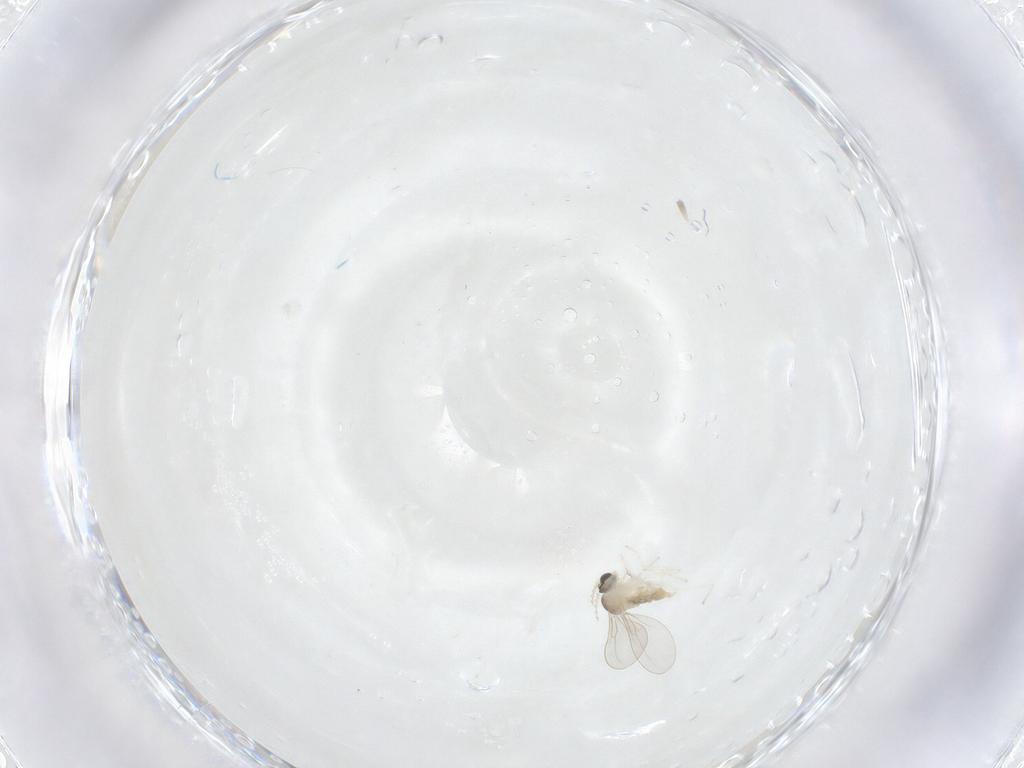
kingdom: Animalia
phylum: Arthropoda
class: Insecta
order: Diptera
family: Cecidomyiidae
